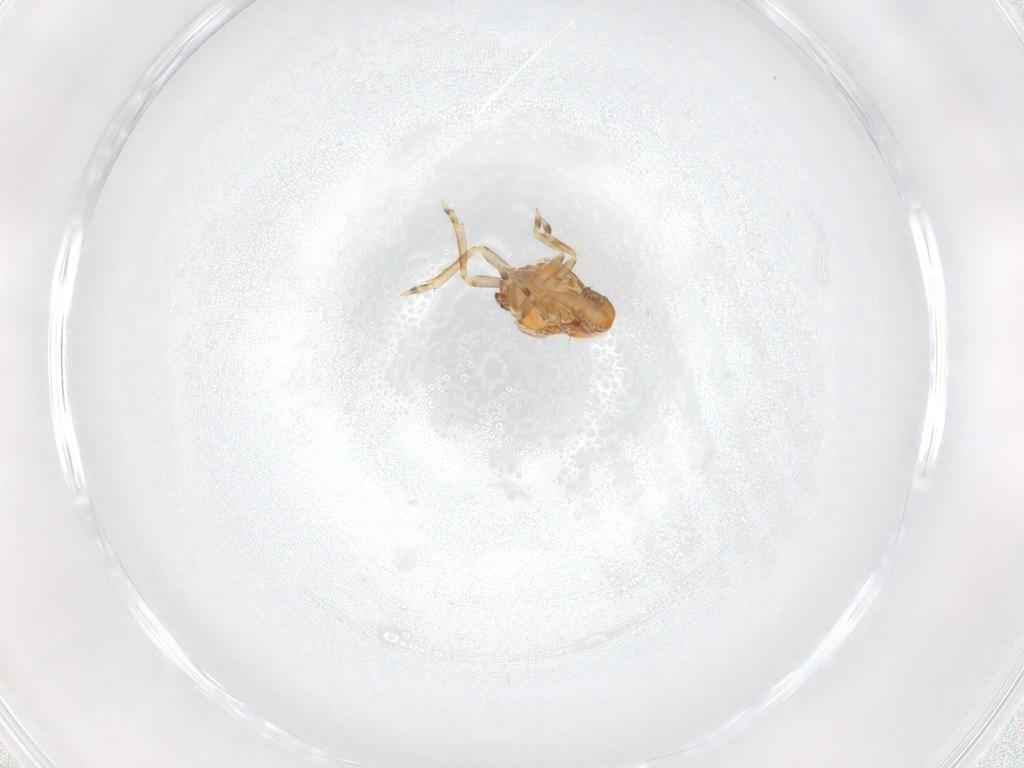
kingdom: Animalia
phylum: Arthropoda
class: Insecta
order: Hemiptera
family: Flatidae
